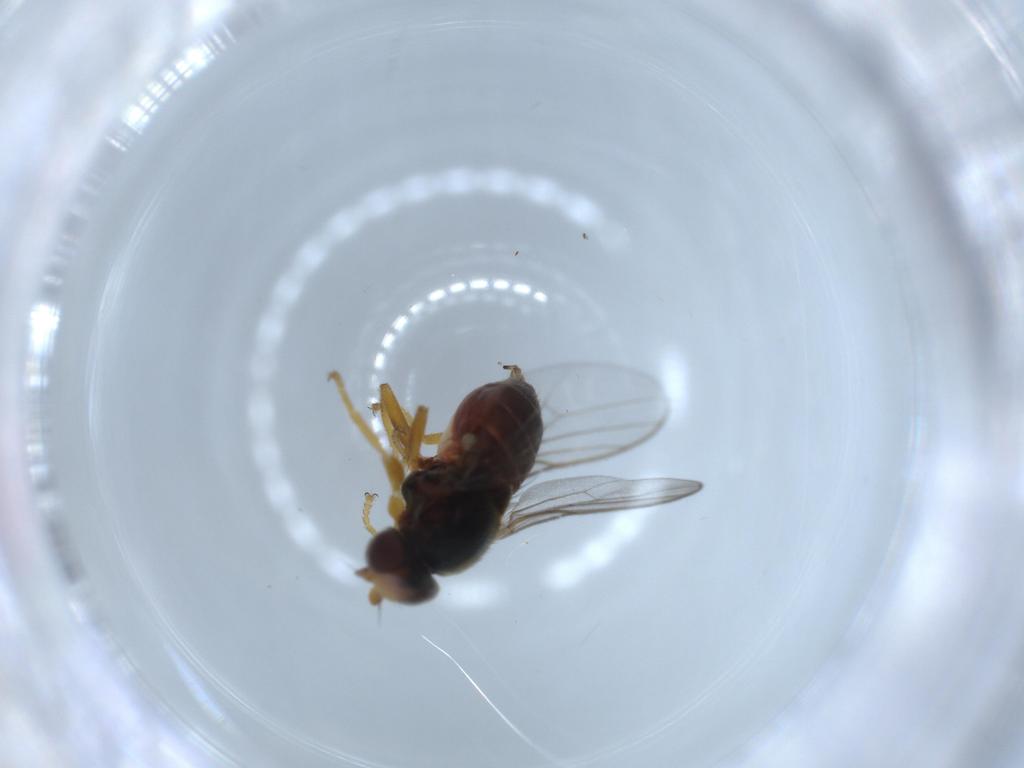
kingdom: Animalia
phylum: Arthropoda
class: Insecta
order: Diptera
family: Chloropidae
